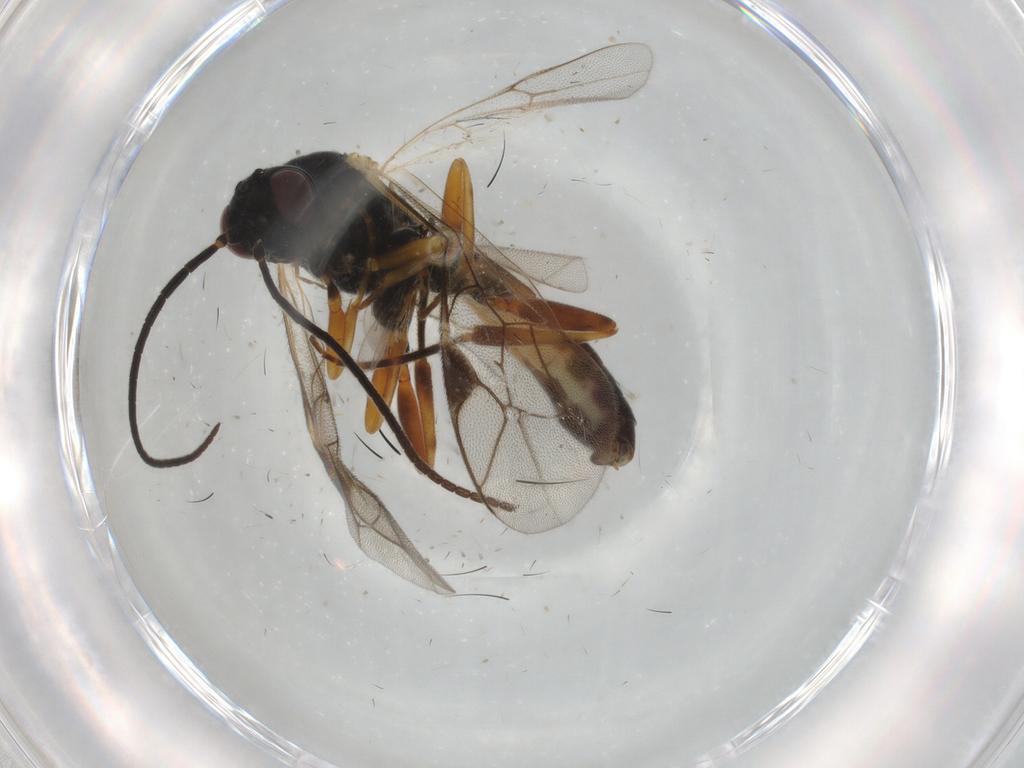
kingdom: Animalia
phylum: Arthropoda
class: Insecta
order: Hymenoptera
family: Ichneumonidae
